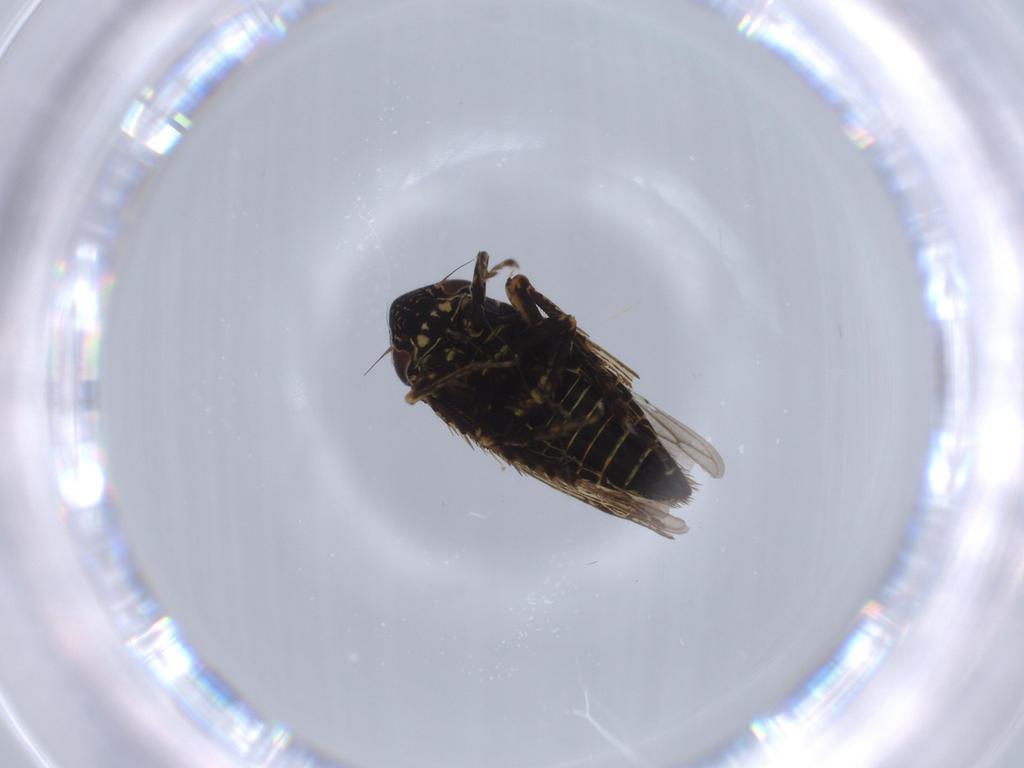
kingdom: Animalia
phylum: Arthropoda
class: Insecta
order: Hemiptera
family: Cicadellidae
